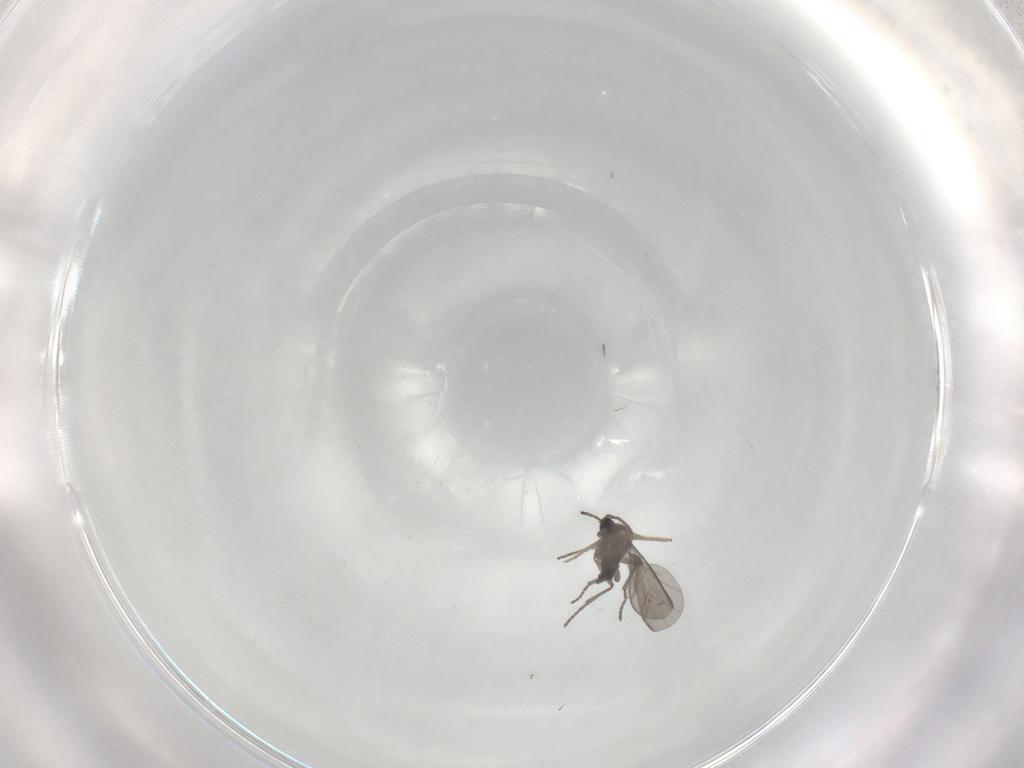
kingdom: Animalia
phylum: Arthropoda
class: Insecta
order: Diptera
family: Chironomidae
